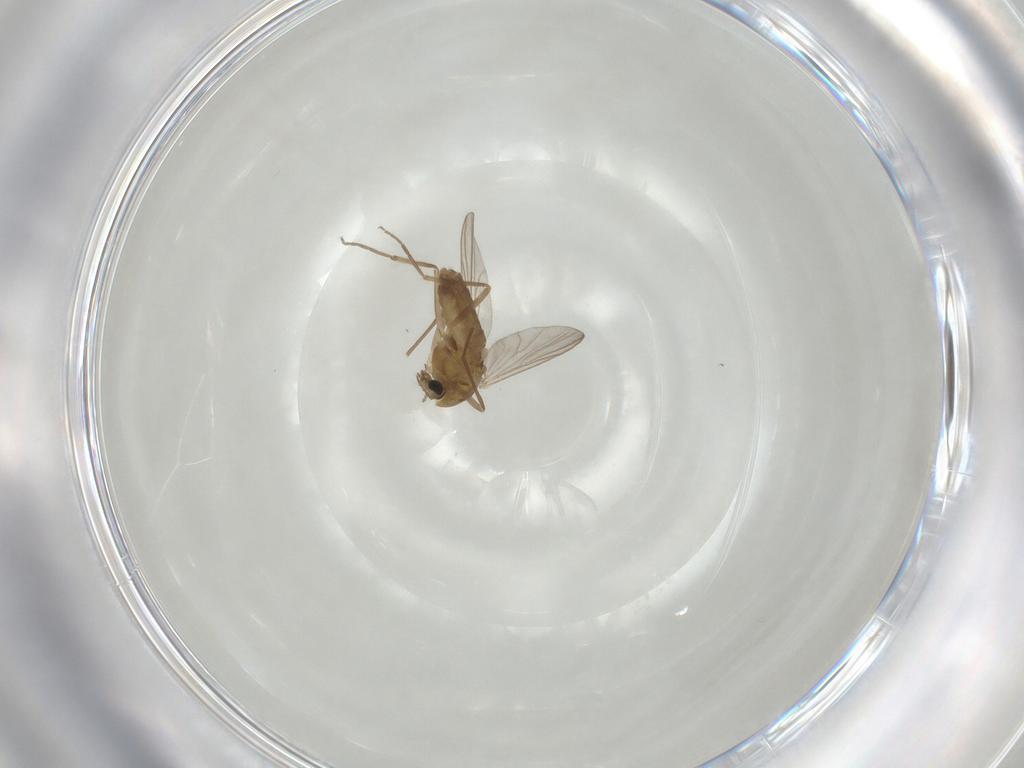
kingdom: Animalia
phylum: Arthropoda
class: Insecta
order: Diptera
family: Chironomidae
